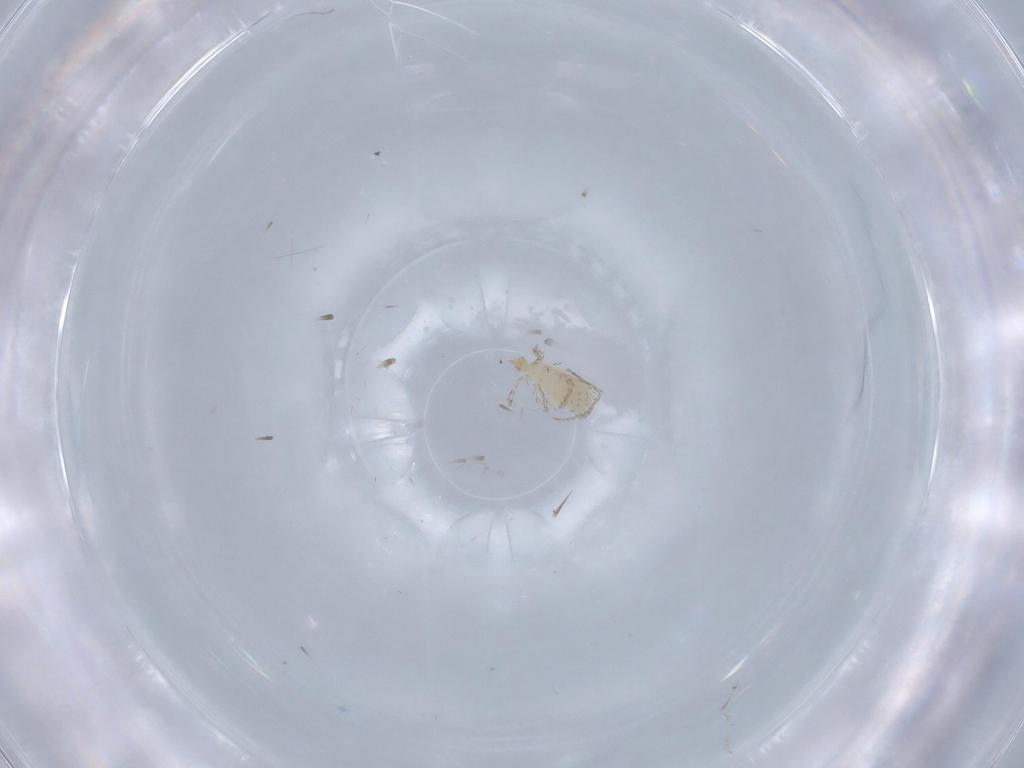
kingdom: Animalia
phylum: Arthropoda
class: Arachnida
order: Trombidiformes
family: Erythraeidae
